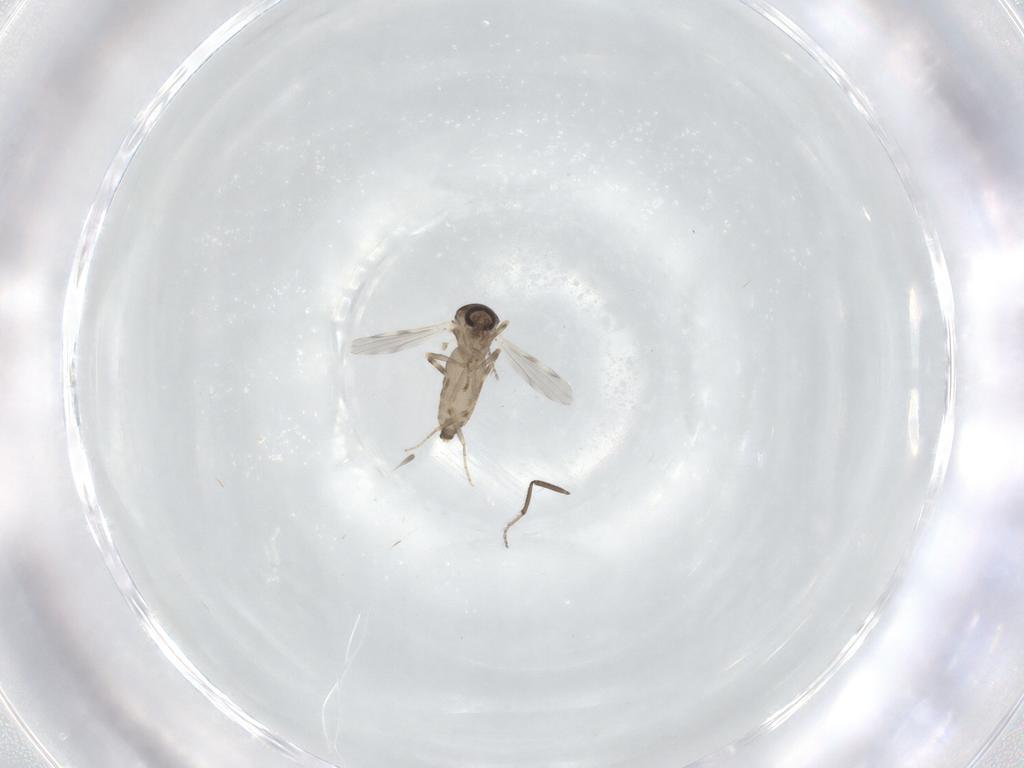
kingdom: Animalia
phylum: Arthropoda
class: Insecta
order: Diptera
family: Ceratopogonidae
